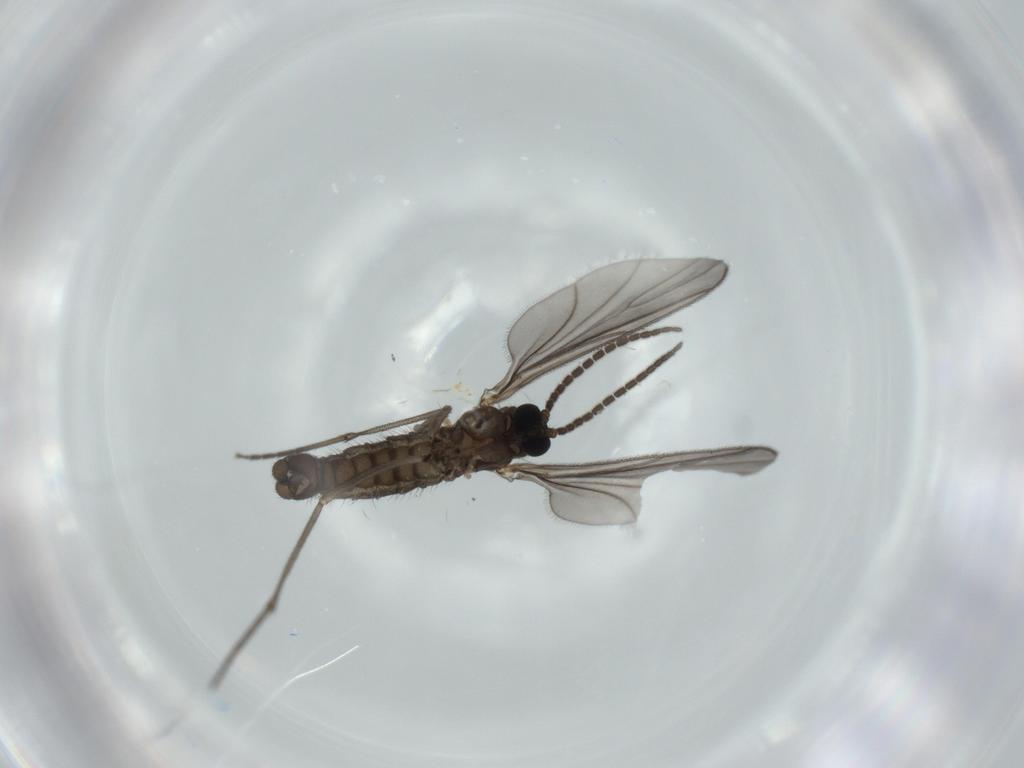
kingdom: Animalia
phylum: Arthropoda
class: Insecta
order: Diptera
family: Sciaridae
